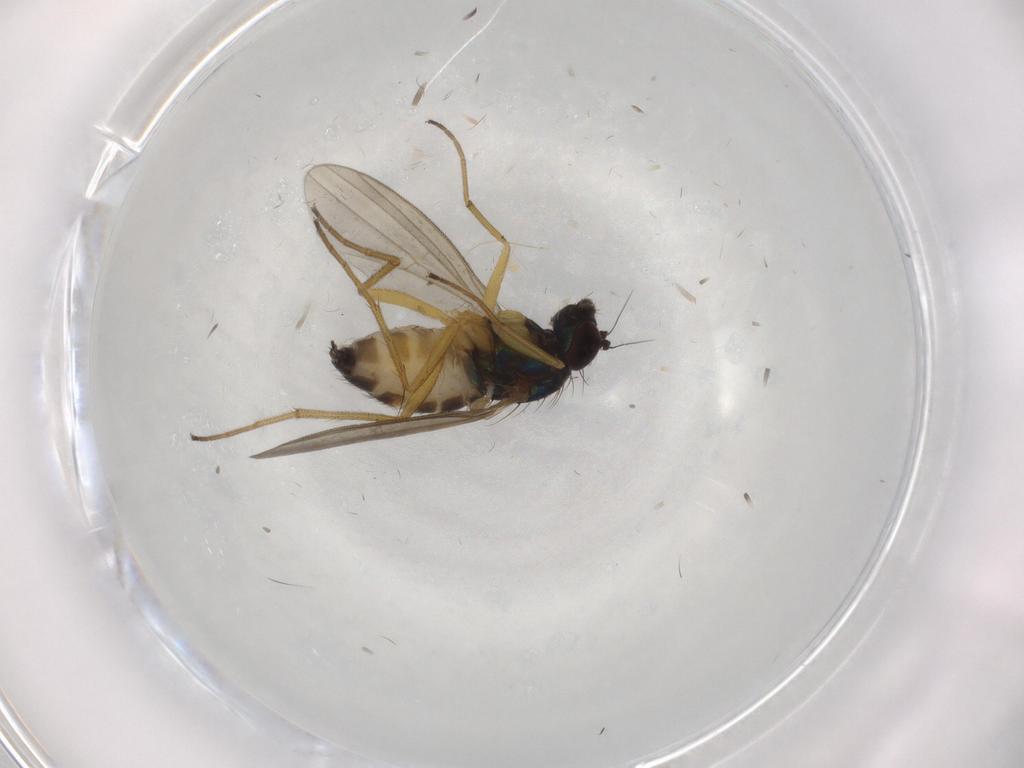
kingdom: Animalia
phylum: Arthropoda
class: Insecta
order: Diptera
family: Dolichopodidae
